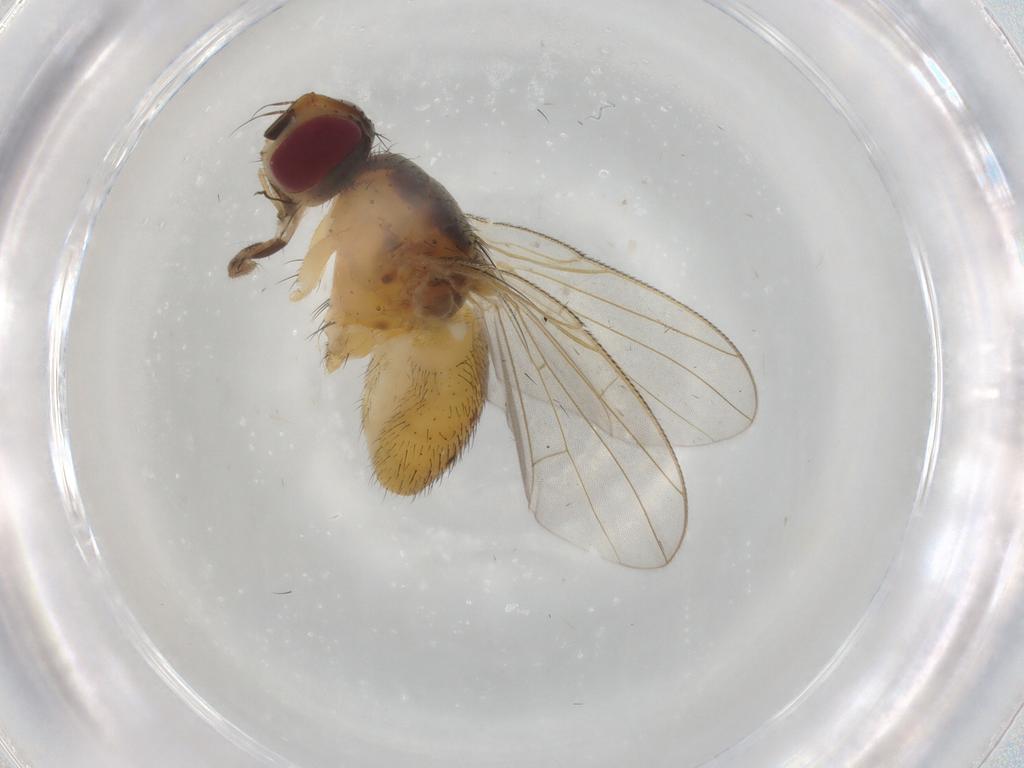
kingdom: Animalia
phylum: Arthropoda
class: Insecta
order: Diptera
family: Muscidae
